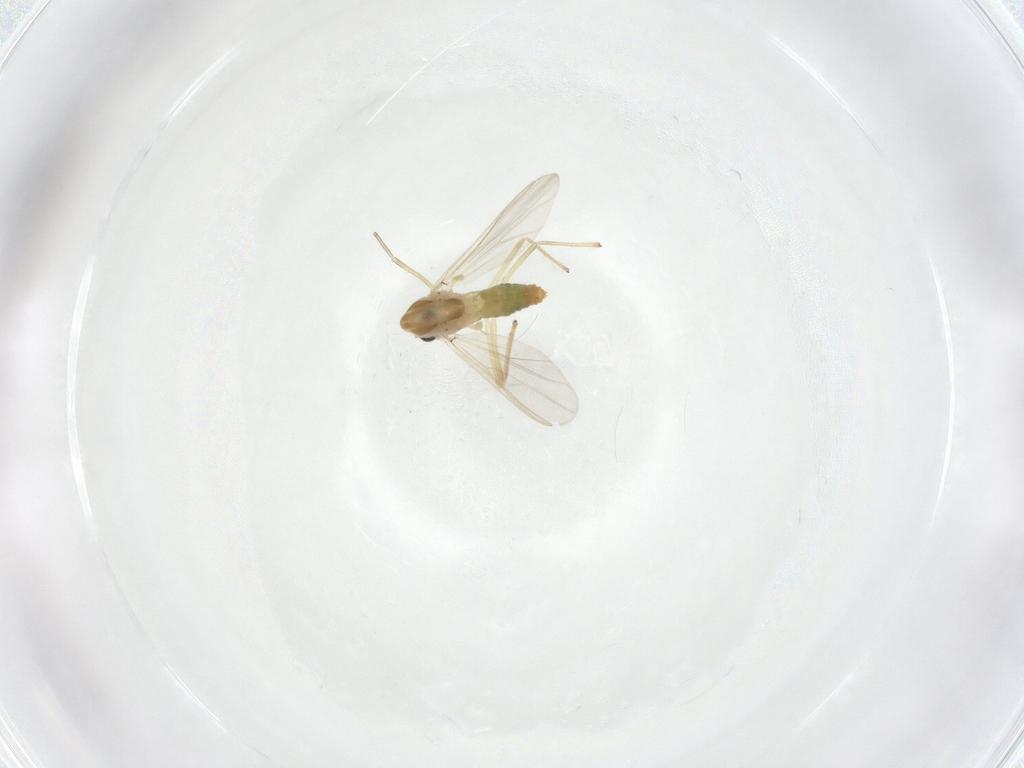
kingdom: Animalia
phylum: Arthropoda
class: Insecta
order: Diptera
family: Chironomidae
